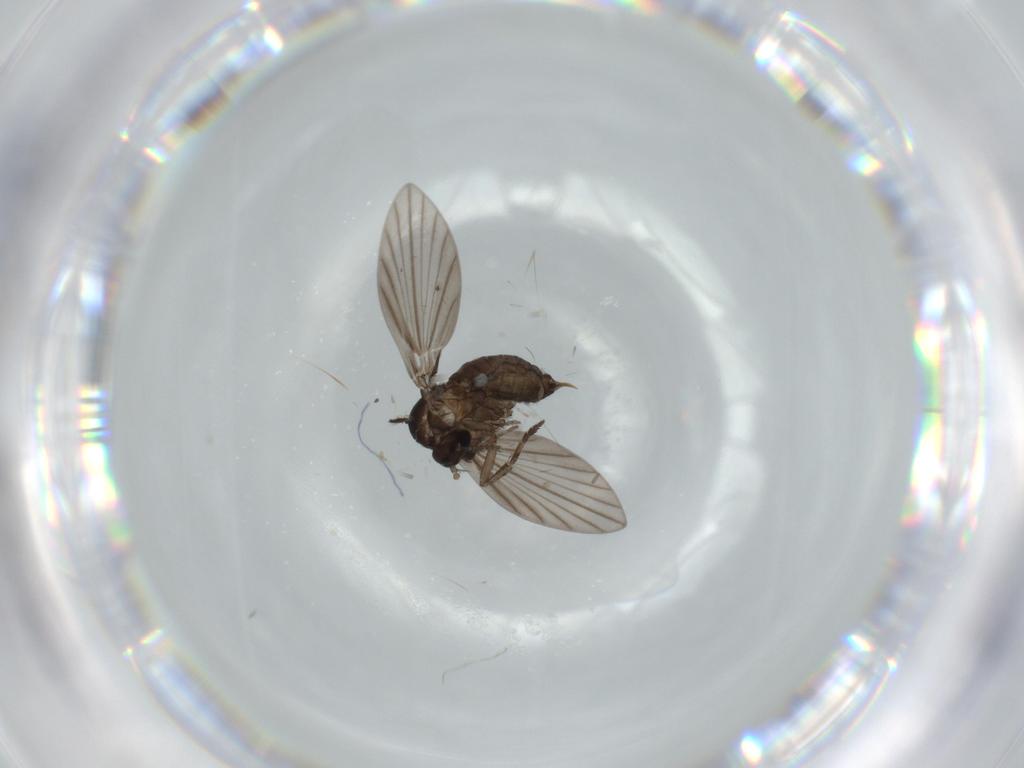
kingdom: Animalia
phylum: Arthropoda
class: Insecta
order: Diptera
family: Psychodidae
